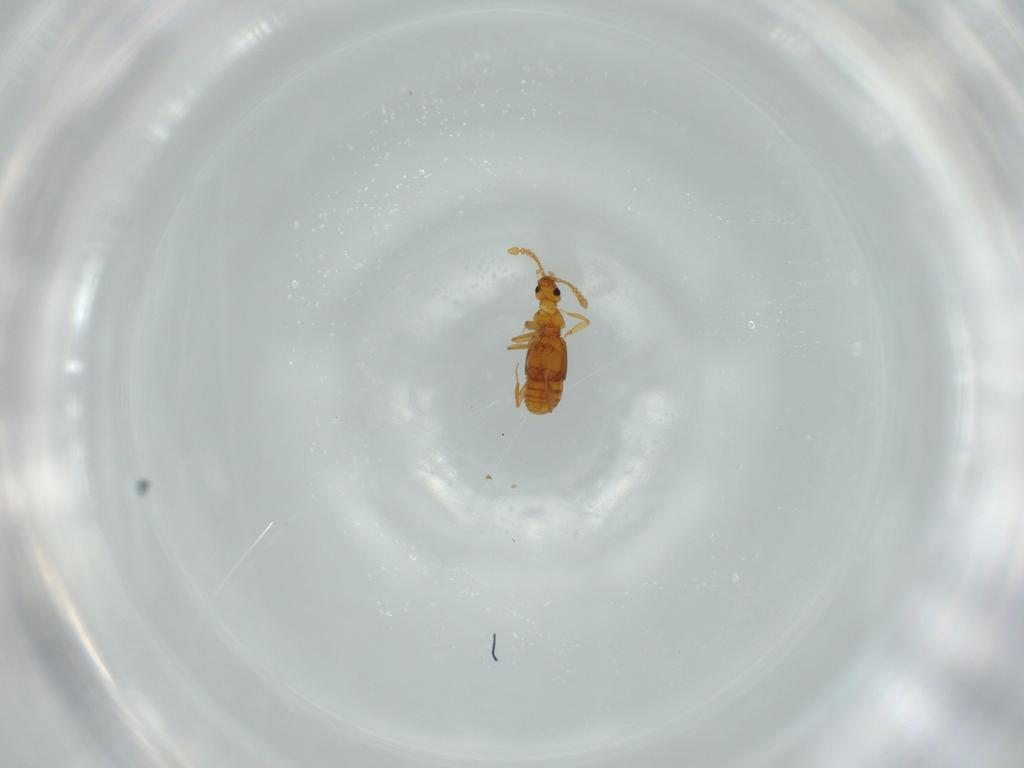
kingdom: Animalia
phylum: Arthropoda
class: Insecta
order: Coleoptera
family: Staphylinidae
